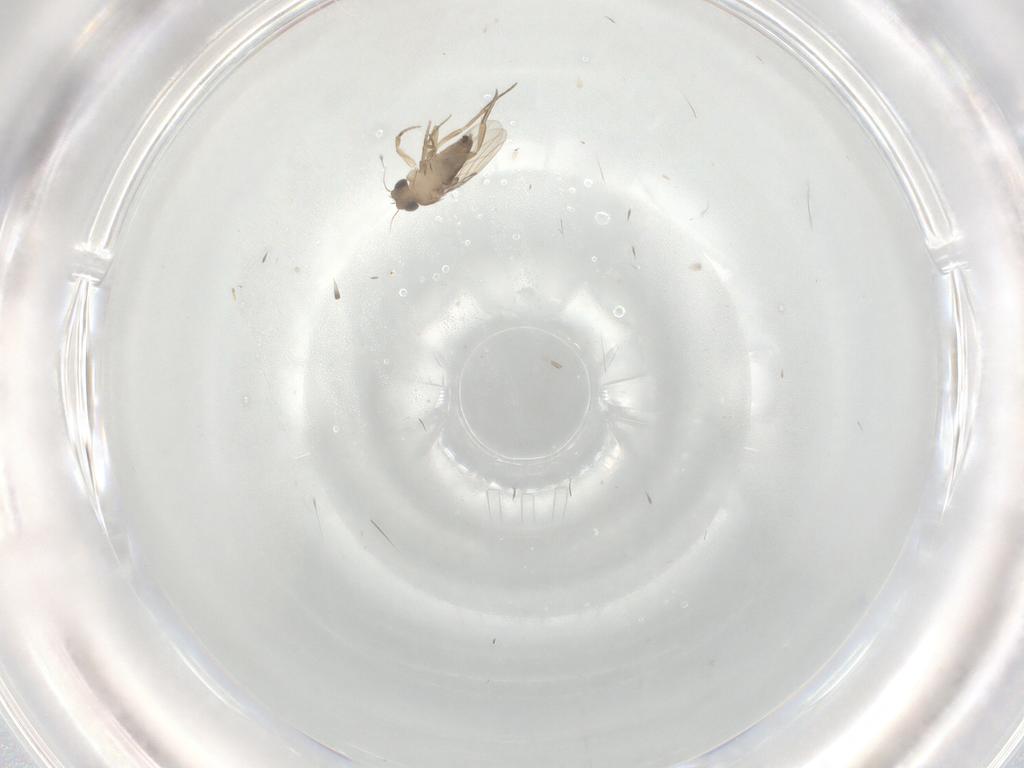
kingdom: Animalia
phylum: Arthropoda
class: Insecta
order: Diptera
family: Phoridae
